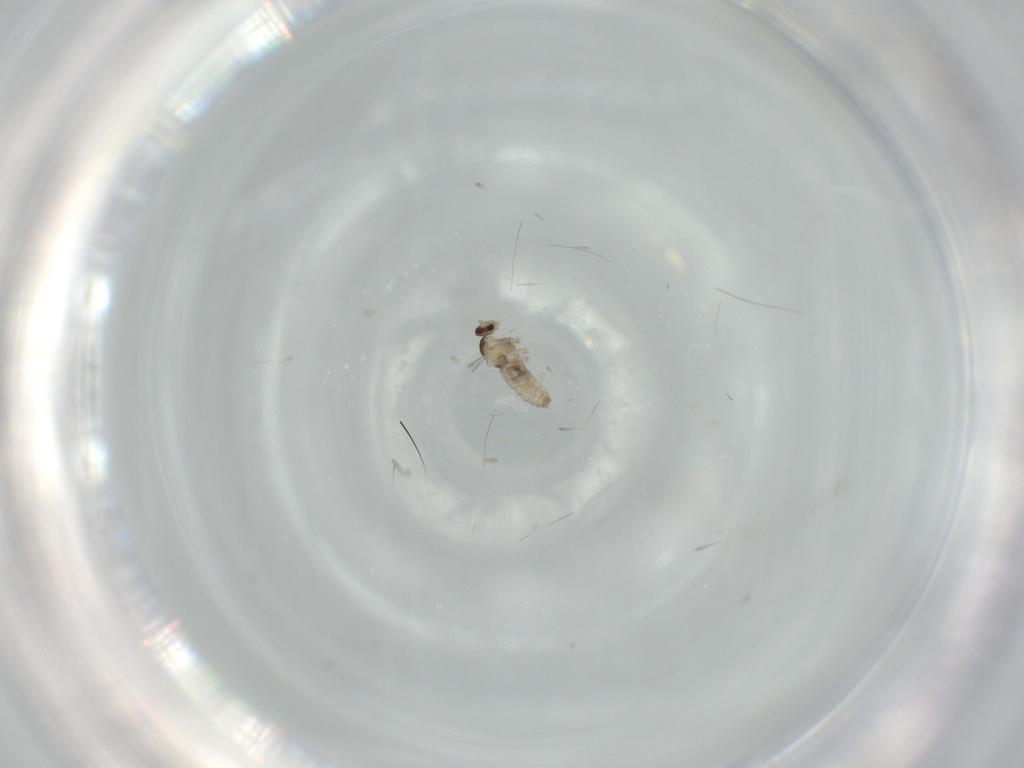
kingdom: Animalia
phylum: Arthropoda
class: Insecta
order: Diptera
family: Cecidomyiidae
